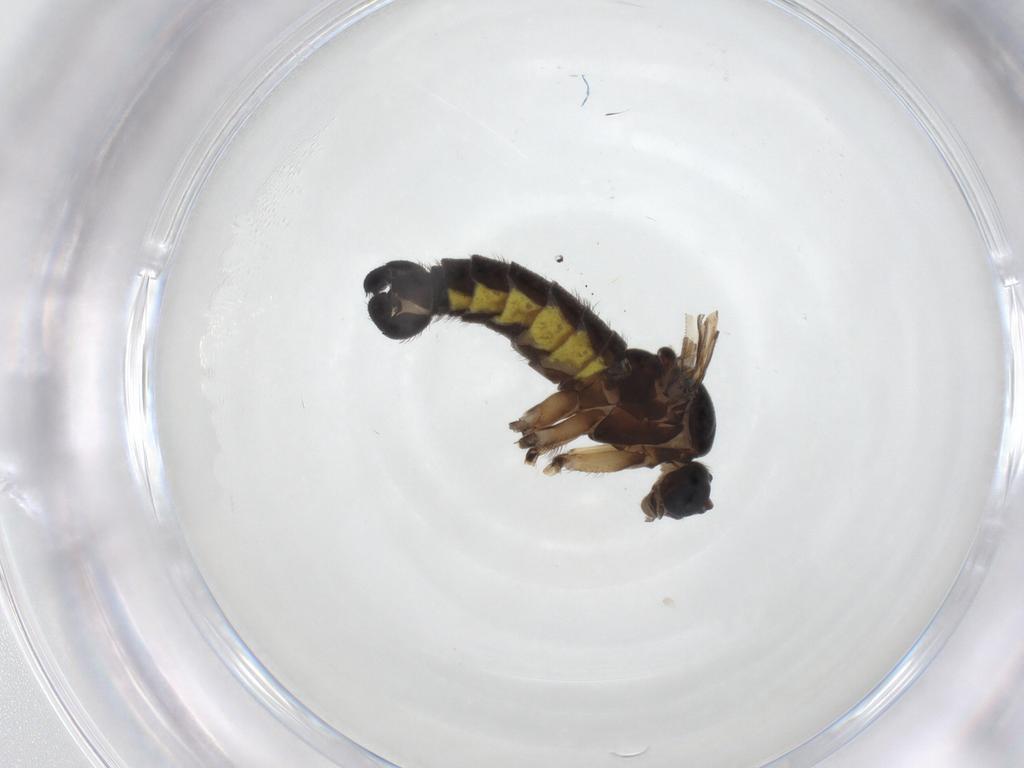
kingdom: Animalia
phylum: Arthropoda
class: Insecta
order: Diptera
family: Sciaridae
